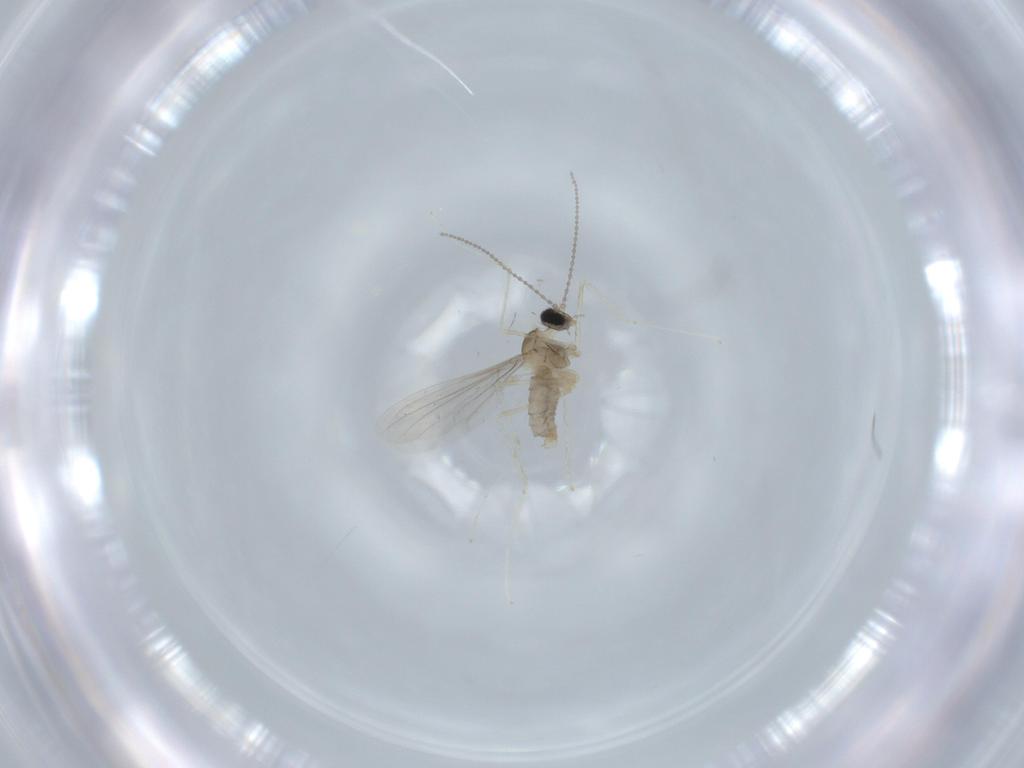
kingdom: Animalia
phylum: Arthropoda
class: Insecta
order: Diptera
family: Cecidomyiidae
